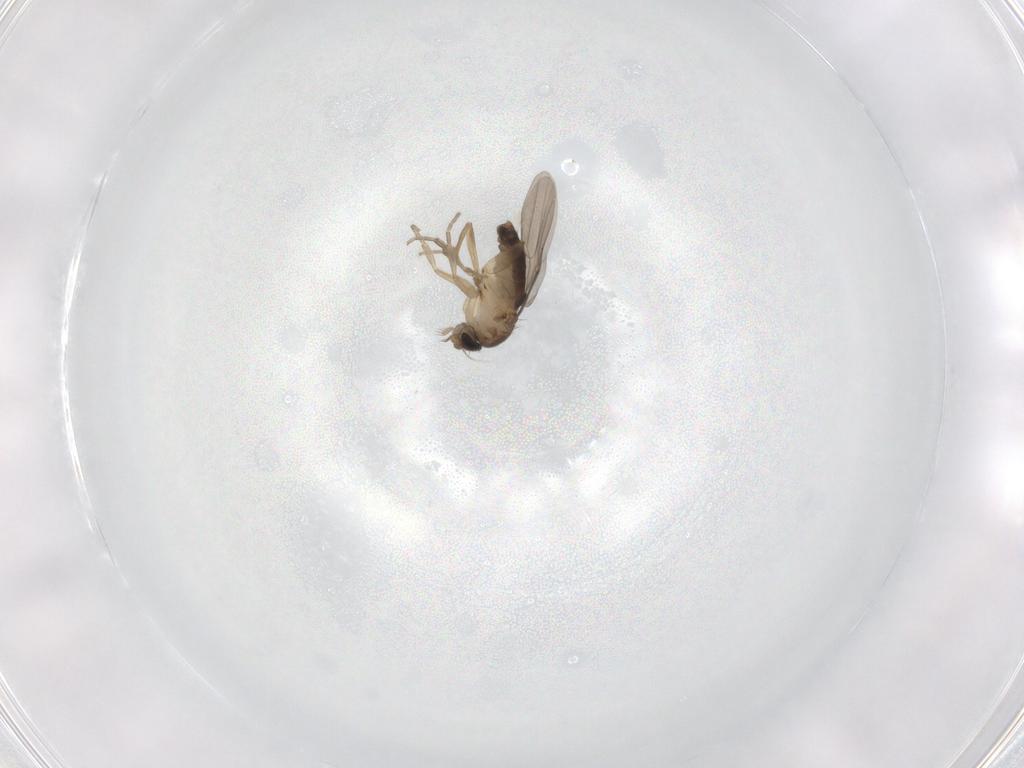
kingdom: Animalia
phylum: Arthropoda
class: Insecta
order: Diptera
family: Phoridae
